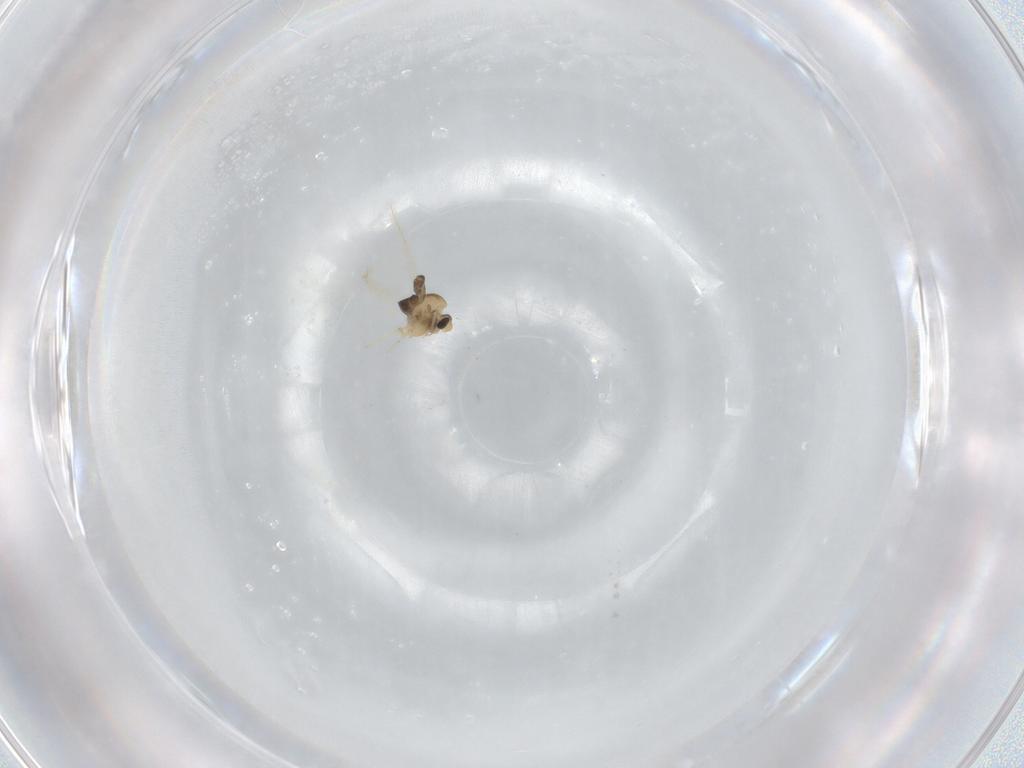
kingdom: Animalia
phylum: Arthropoda
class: Insecta
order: Diptera
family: Chironomidae
